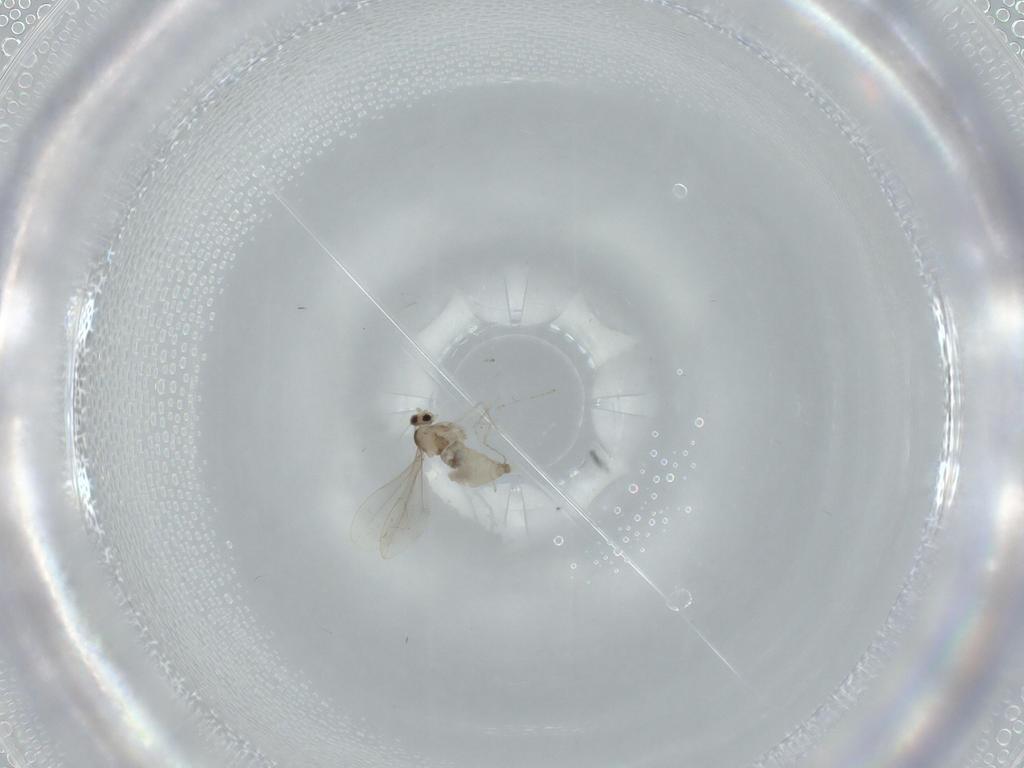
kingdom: Animalia
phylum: Arthropoda
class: Insecta
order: Diptera
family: Cecidomyiidae
